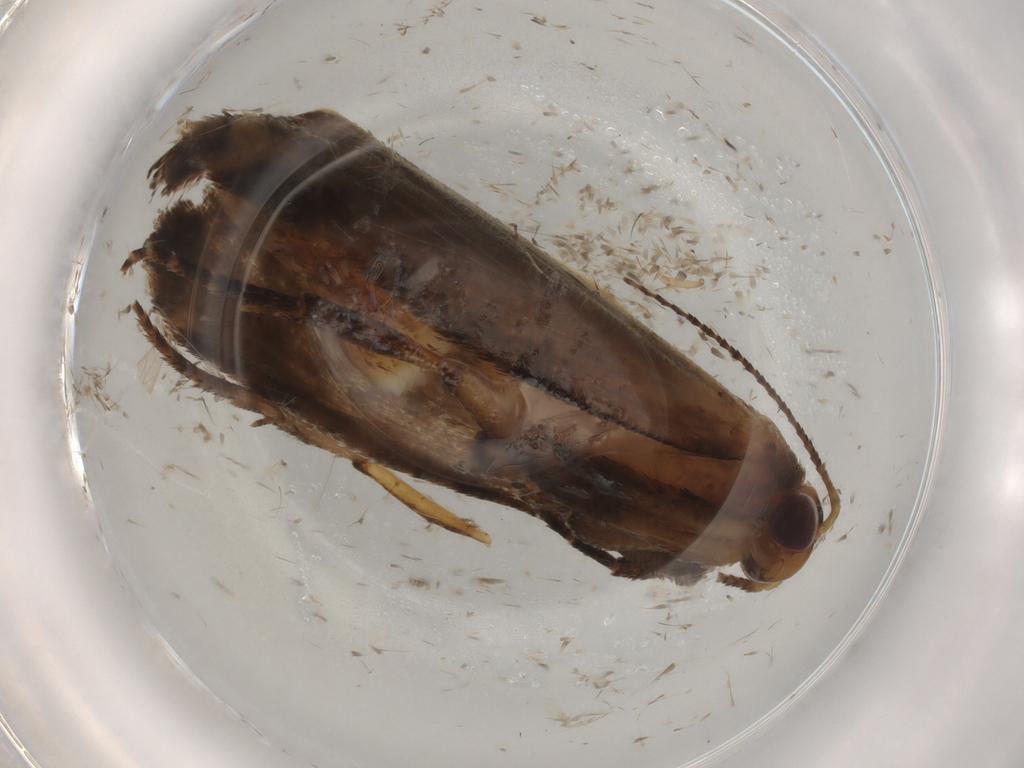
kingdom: Animalia
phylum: Arthropoda
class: Insecta
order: Lepidoptera
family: Gelechiidae
